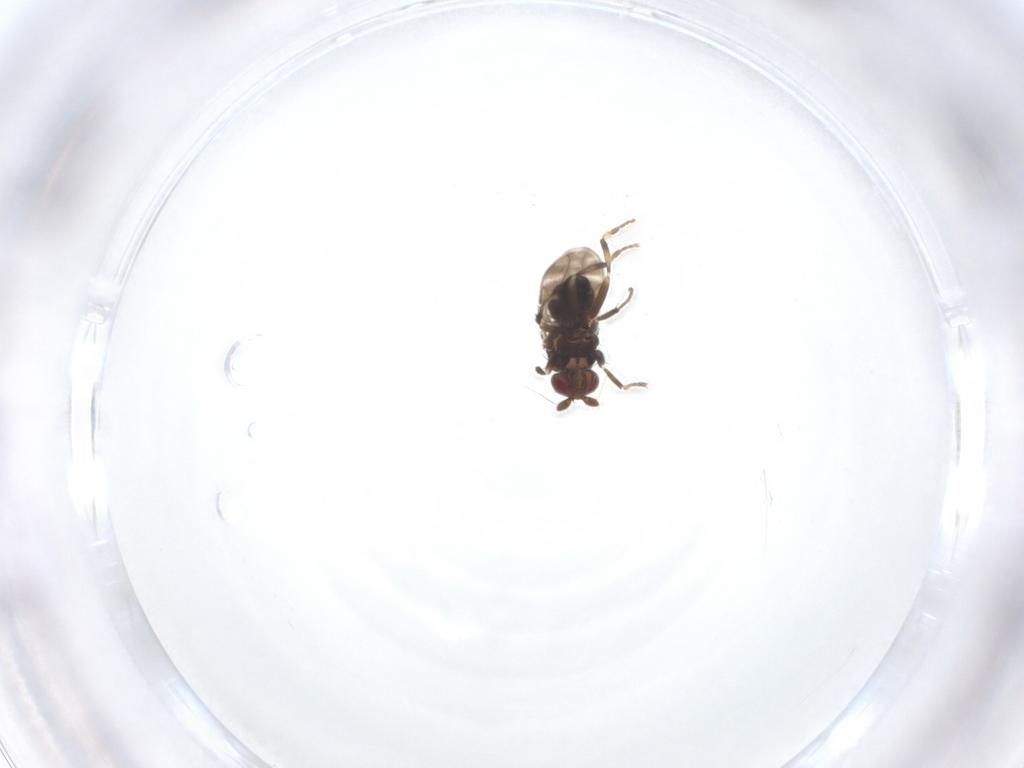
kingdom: Animalia
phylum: Arthropoda
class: Insecta
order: Diptera
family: Sphaeroceridae
